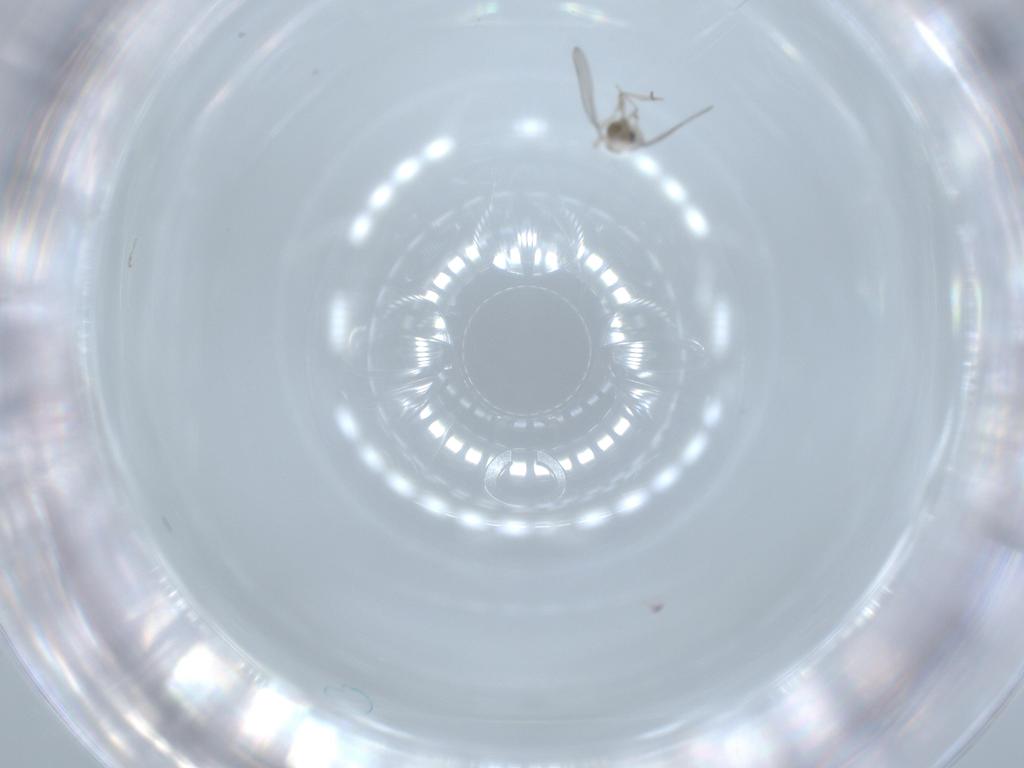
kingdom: Animalia
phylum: Arthropoda
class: Insecta
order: Diptera
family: Cecidomyiidae
